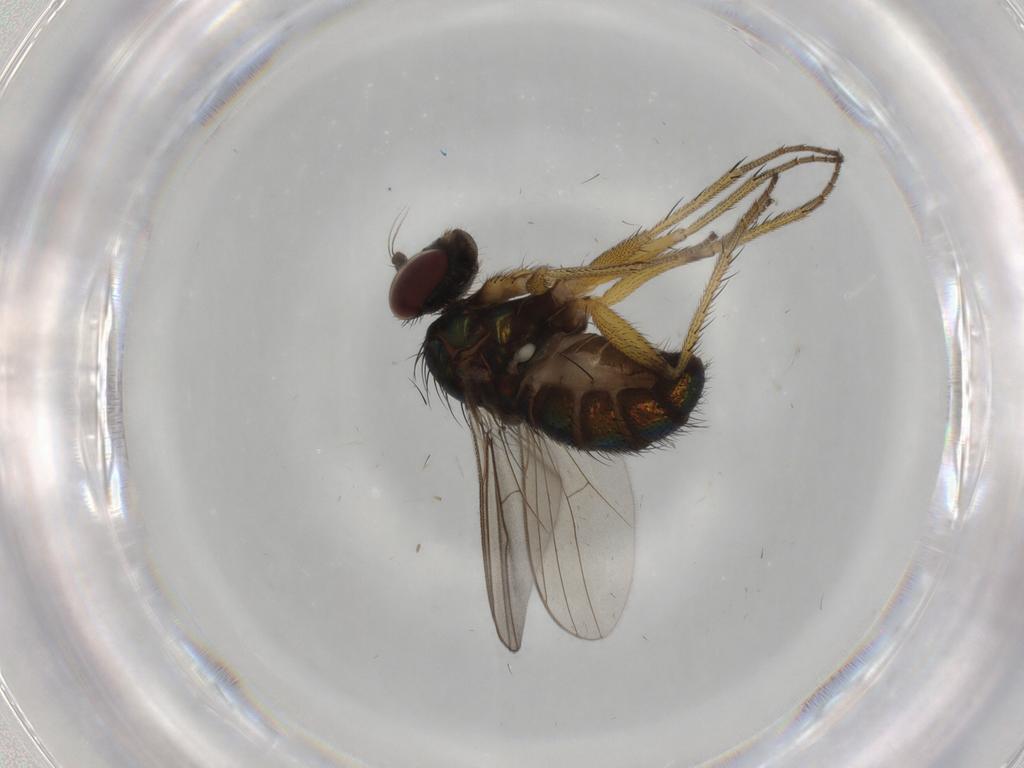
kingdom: Animalia
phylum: Arthropoda
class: Insecta
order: Diptera
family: Dolichopodidae
